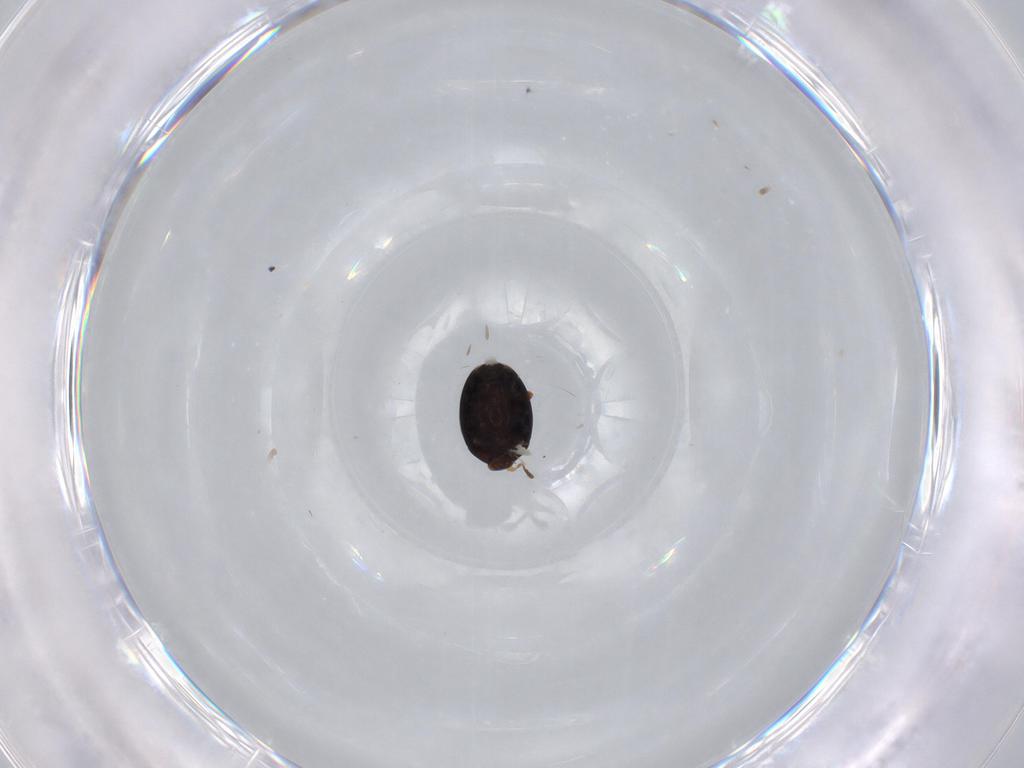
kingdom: Animalia
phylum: Arthropoda
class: Insecta
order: Coleoptera
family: Corylophidae
